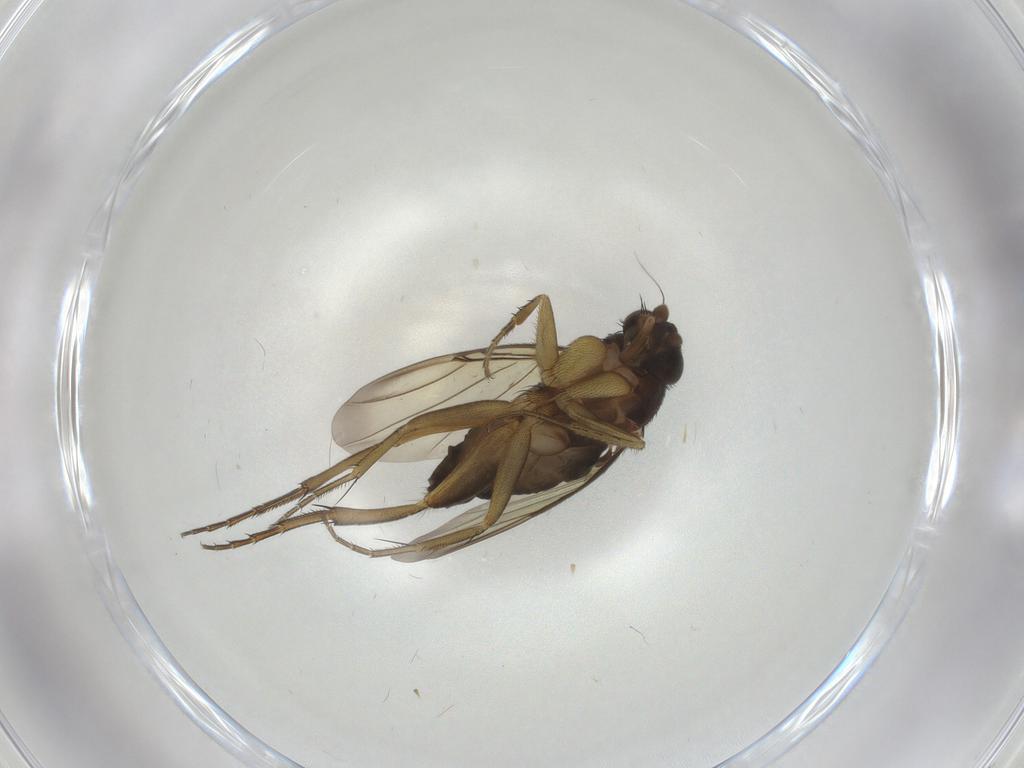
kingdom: Animalia
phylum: Arthropoda
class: Insecta
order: Diptera
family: Phoridae
